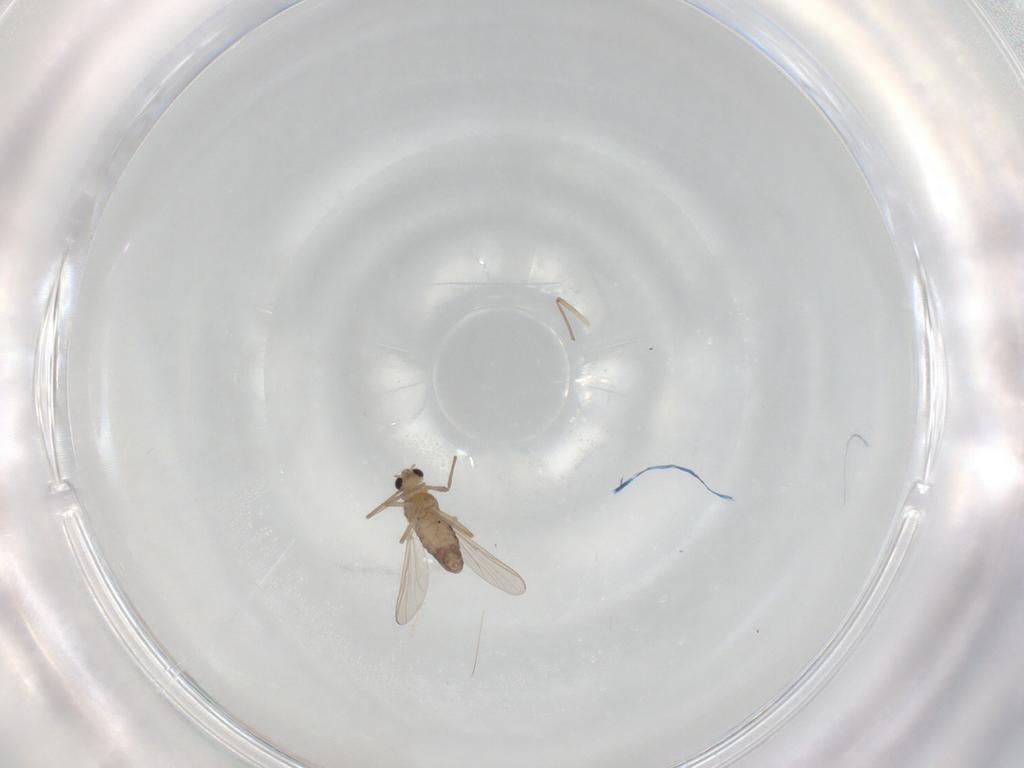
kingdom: Animalia
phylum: Arthropoda
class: Insecta
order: Diptera
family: Chironomidae
